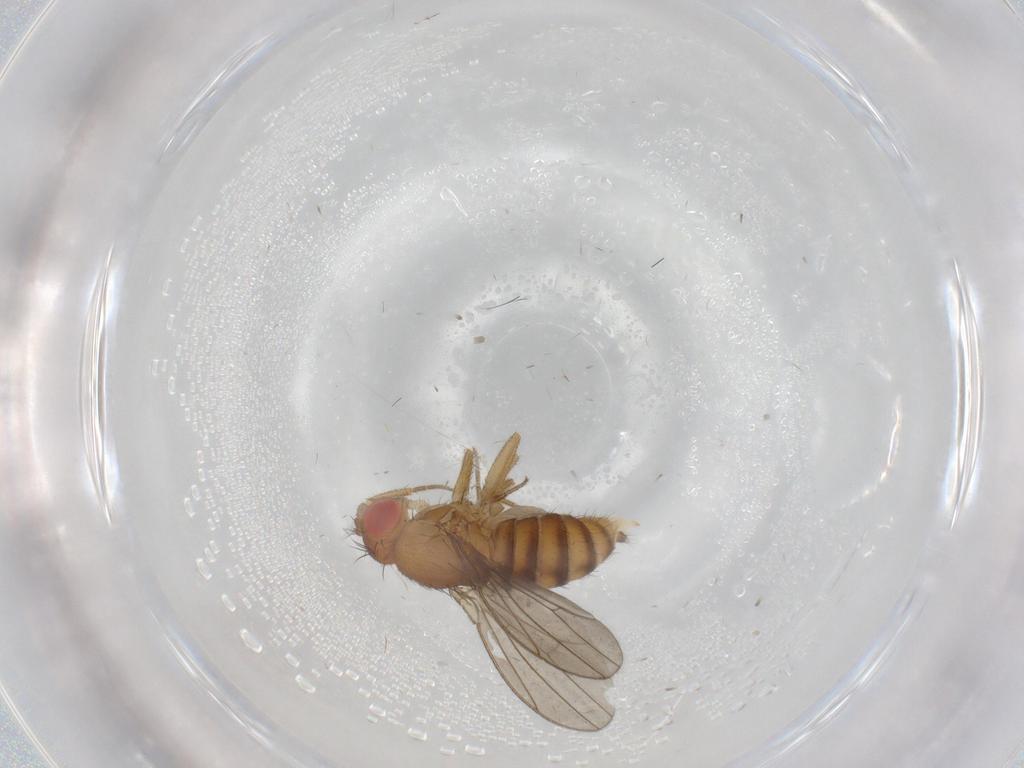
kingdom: Animalia
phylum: Arthropoda
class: Insecta
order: Diptera
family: Drosophilidae
